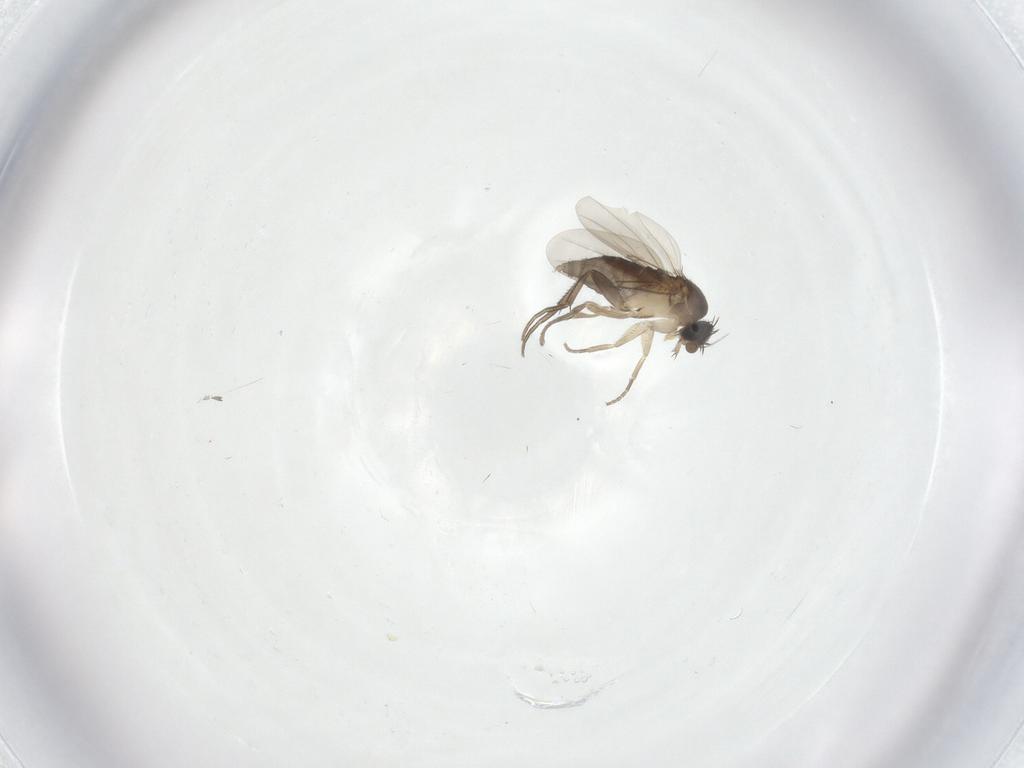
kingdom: Animalia
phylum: Arthropoda
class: Insecta
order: Diptera
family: Phoridae
